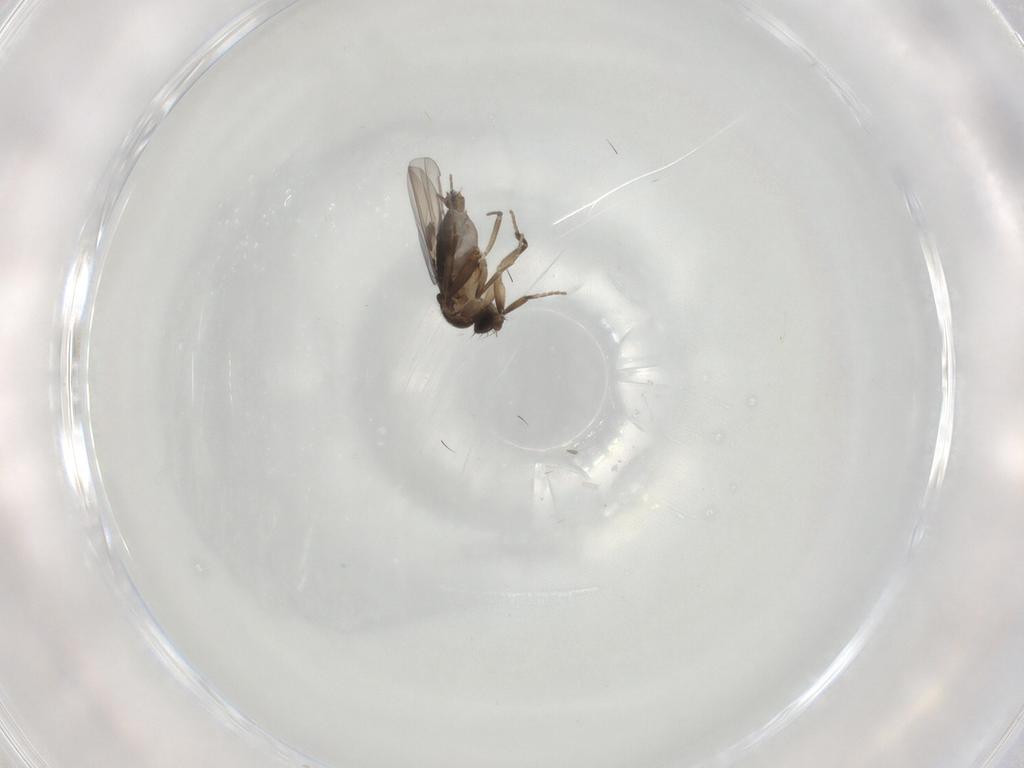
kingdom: Animalia
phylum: Arthropoda
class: Insecta
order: Diptera
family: Phoridae
